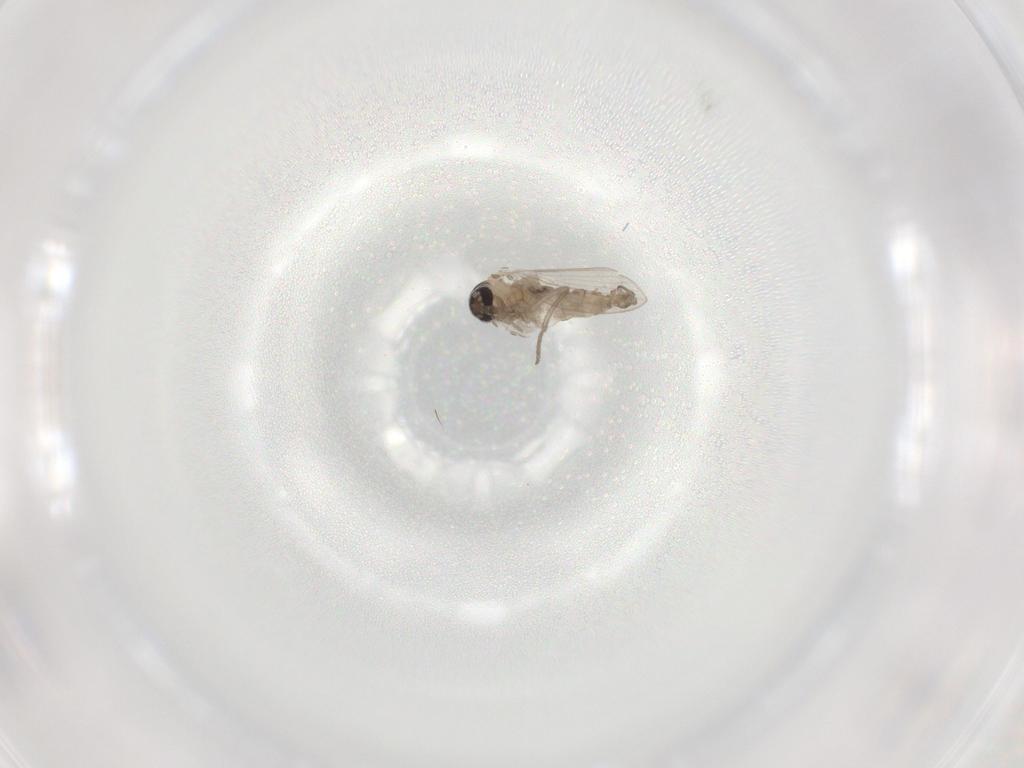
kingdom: Animalia
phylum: Arthropoda
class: Insecta
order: Diptera
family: Psychodidae
